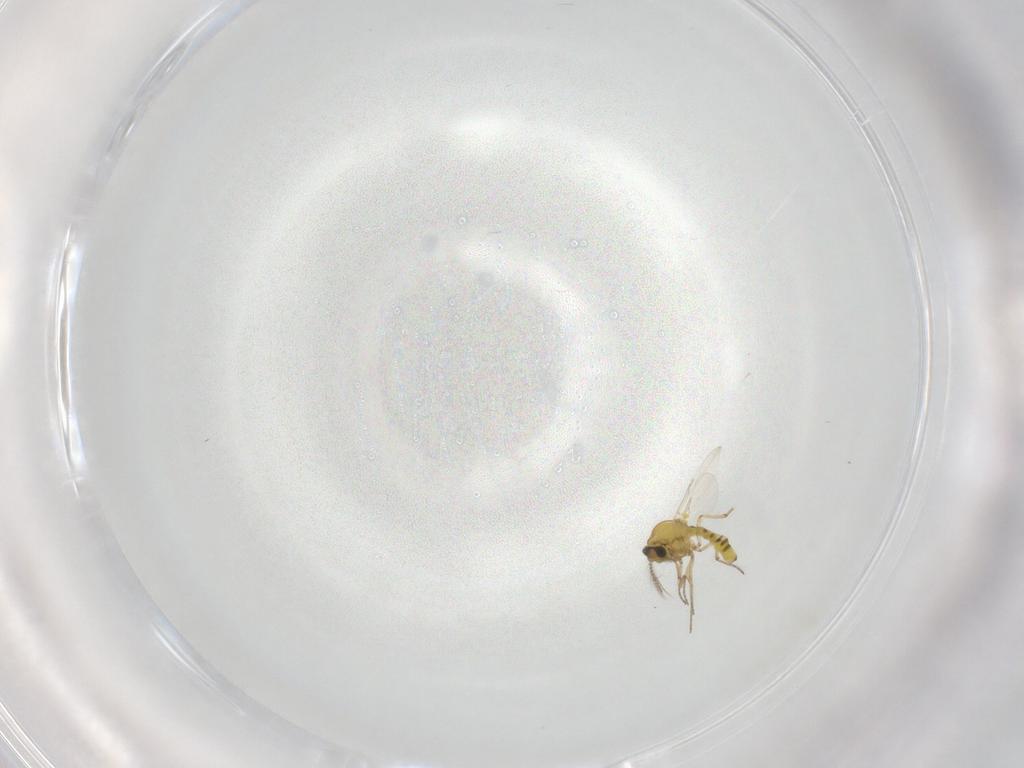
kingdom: Animalia
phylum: Arthropoda
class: Insecta
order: Diptera
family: Ceratopogonidae
